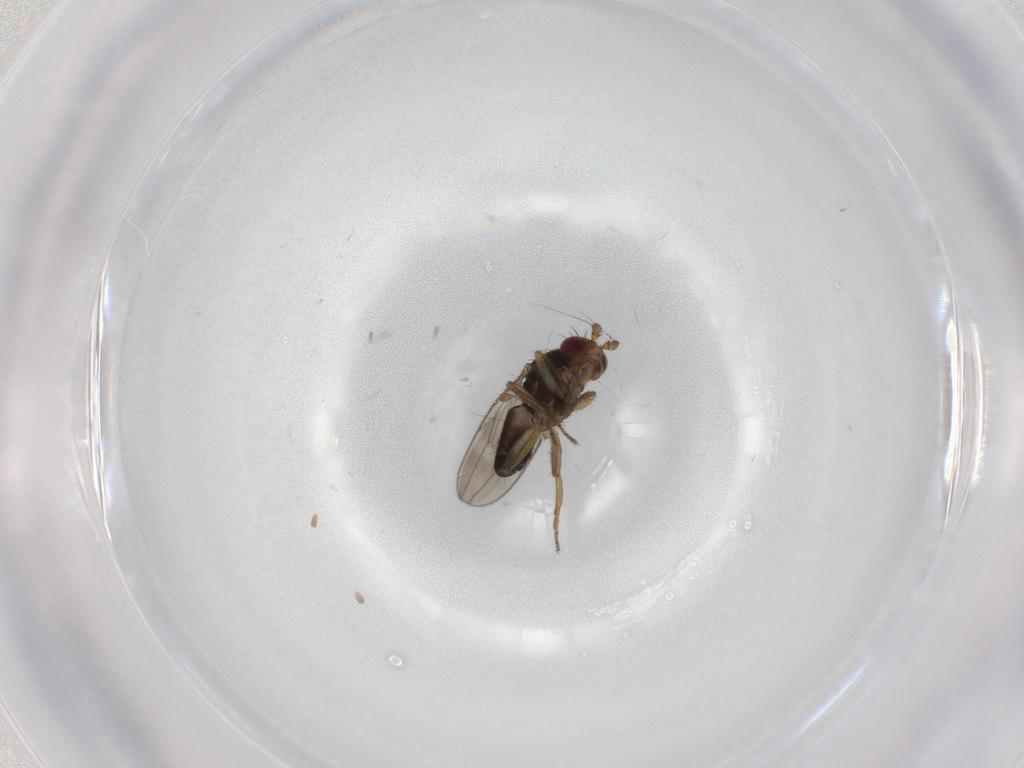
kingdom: Animalia
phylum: Arthropoda
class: Insecta
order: Diptera
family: Sphaeroceridae
